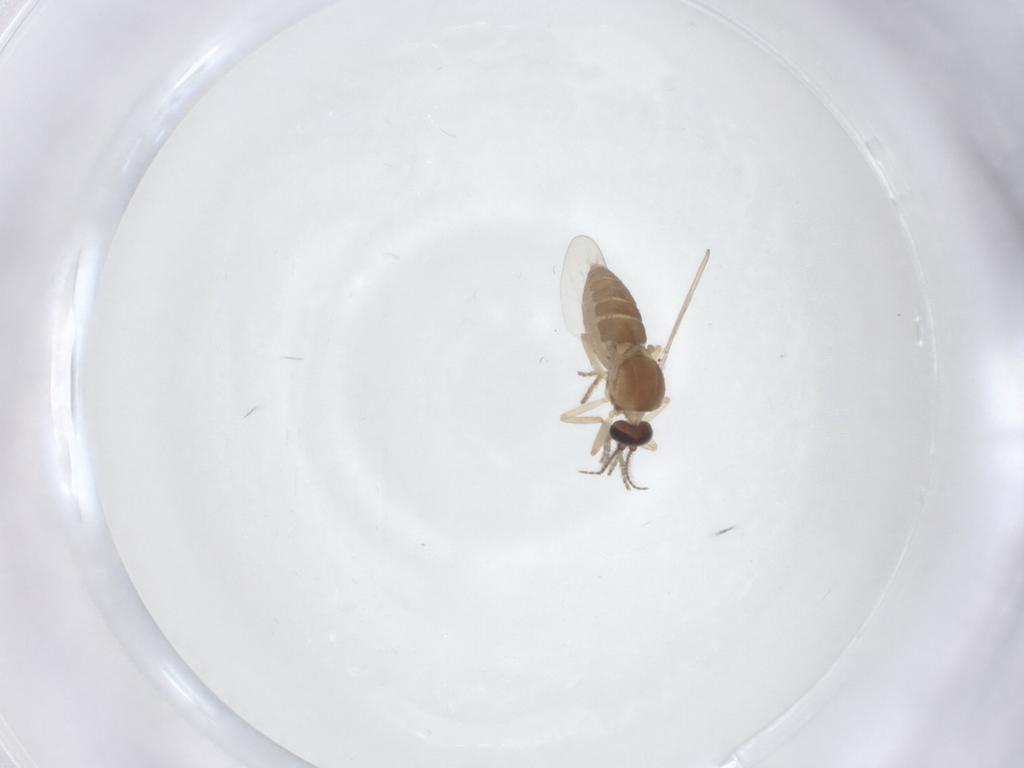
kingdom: Animalia
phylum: Arthropoda
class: Insecta
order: Diptera
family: Ceratopogonidae
